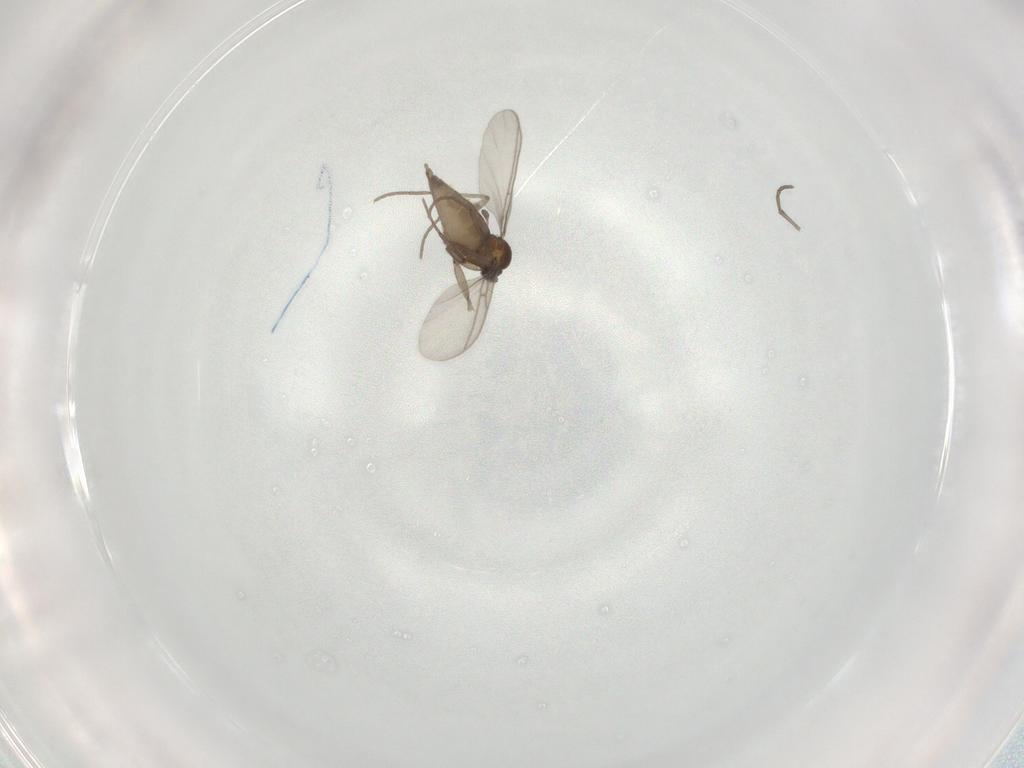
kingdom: Animalia
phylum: Arthropoda
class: Insecta
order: Diptera
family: Sciaridae
